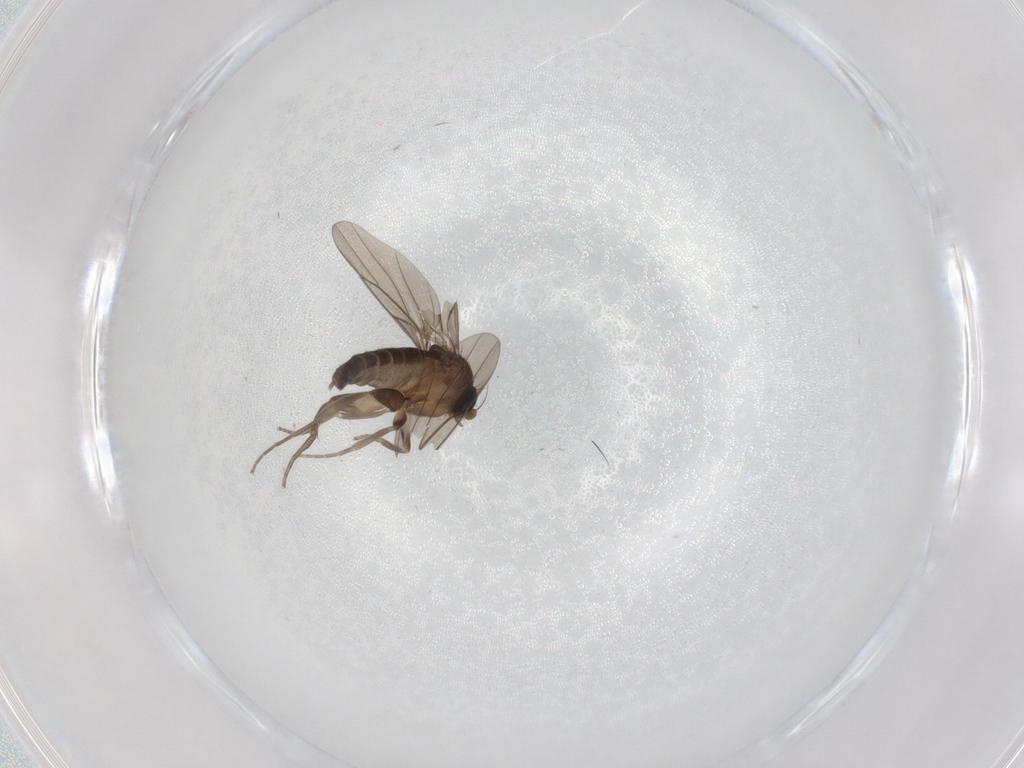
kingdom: Animalia
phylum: Arthropoda
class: Insecta
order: Diptera
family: Phoridae
